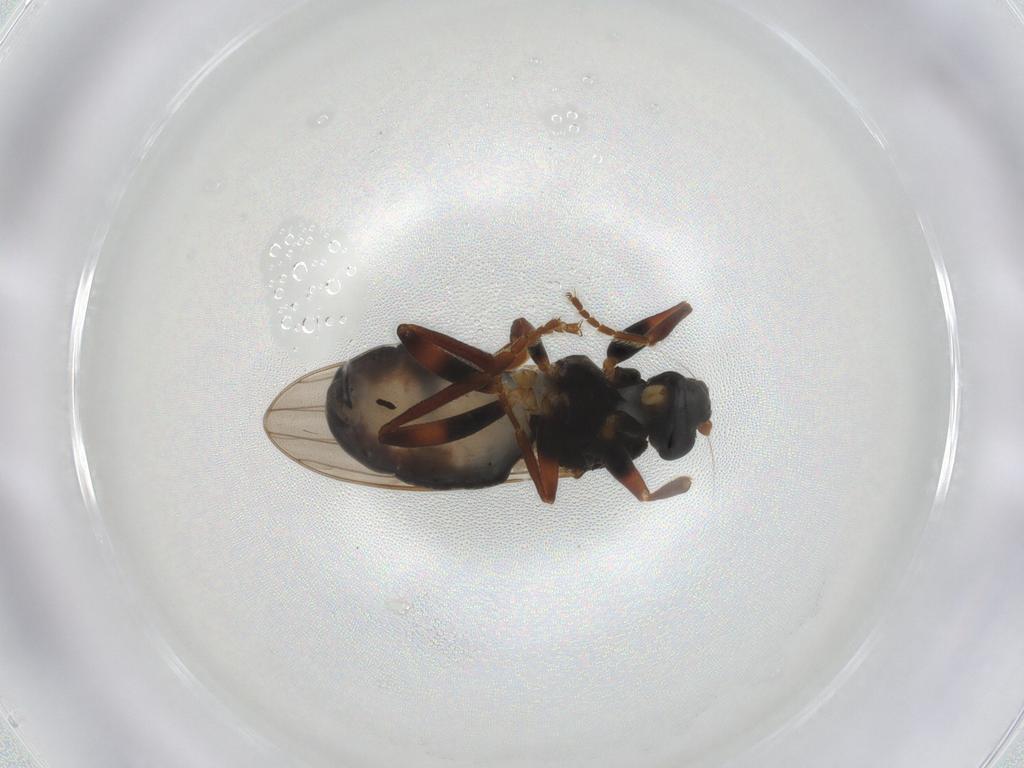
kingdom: Animalia
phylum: Arthropoda
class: Insecta
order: Diptera
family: Sphaeroceridae
